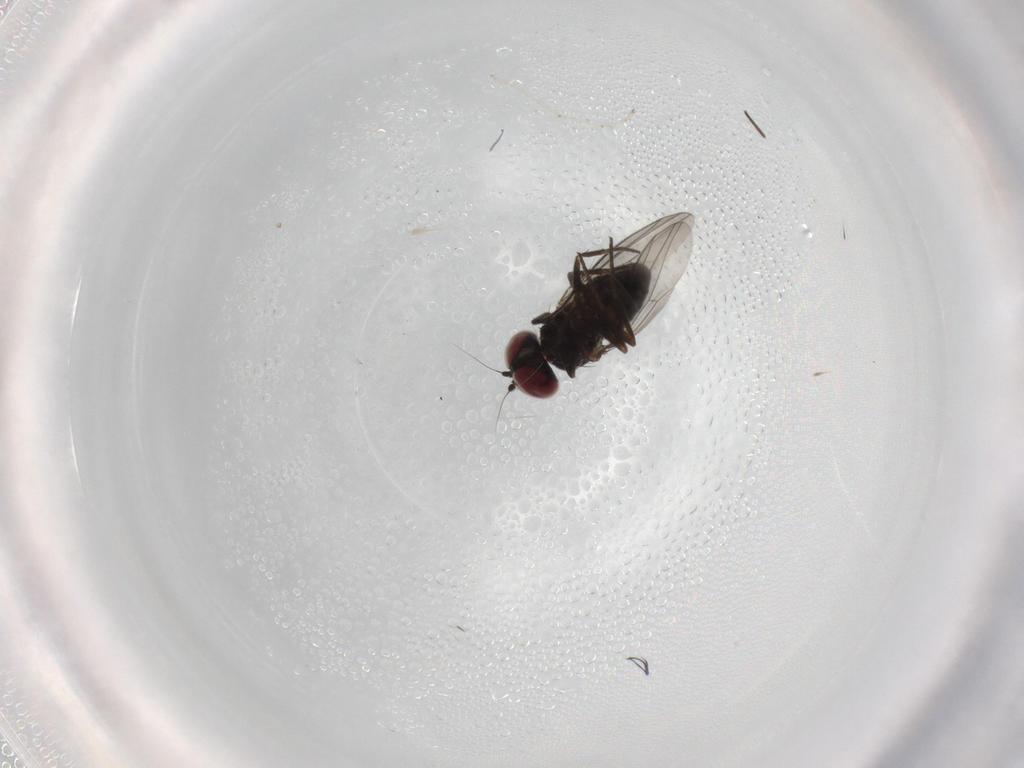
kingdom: Animalia
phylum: Arthropoda
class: Insecta
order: Diptera
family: Cecidomyiidae
